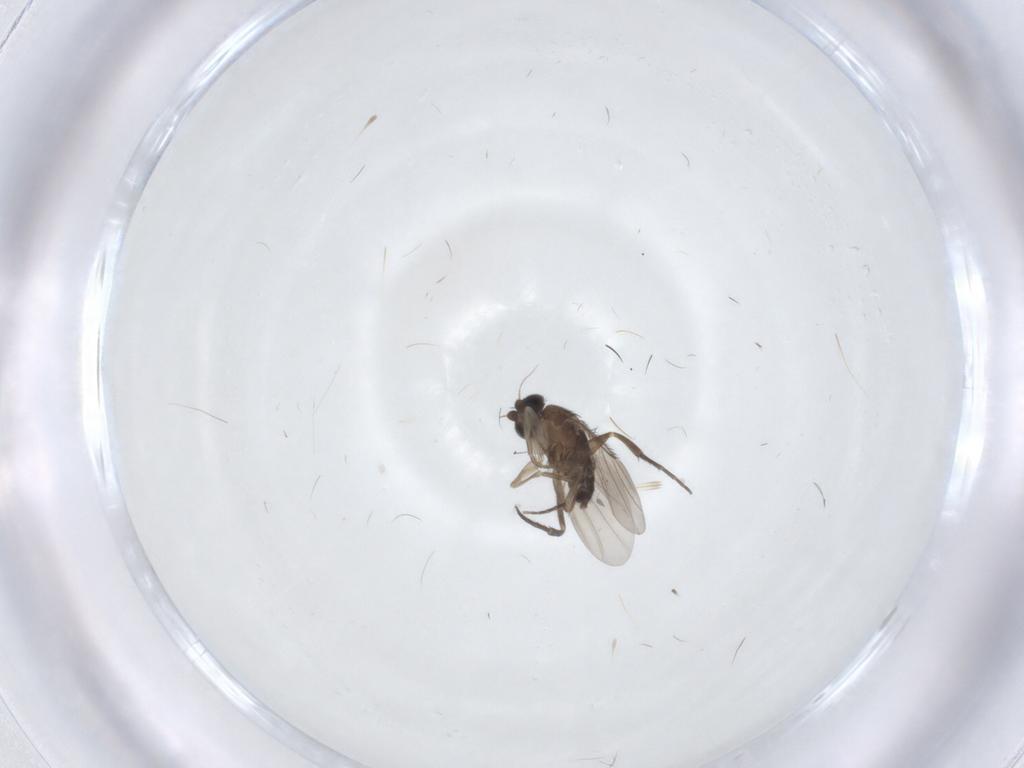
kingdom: Animalia
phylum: Arthropoda
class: Insecta
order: Diptera
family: Phoridae
